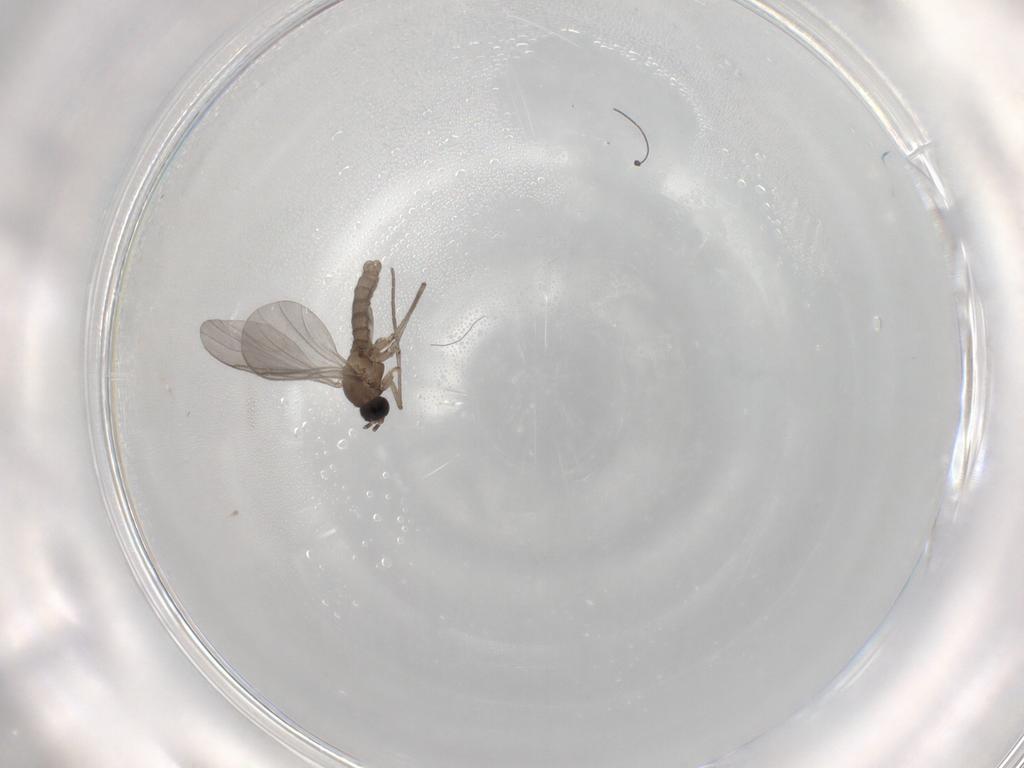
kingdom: Animalia
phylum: Arthropoda
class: Insecta
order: Diptera
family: Sciaridae
